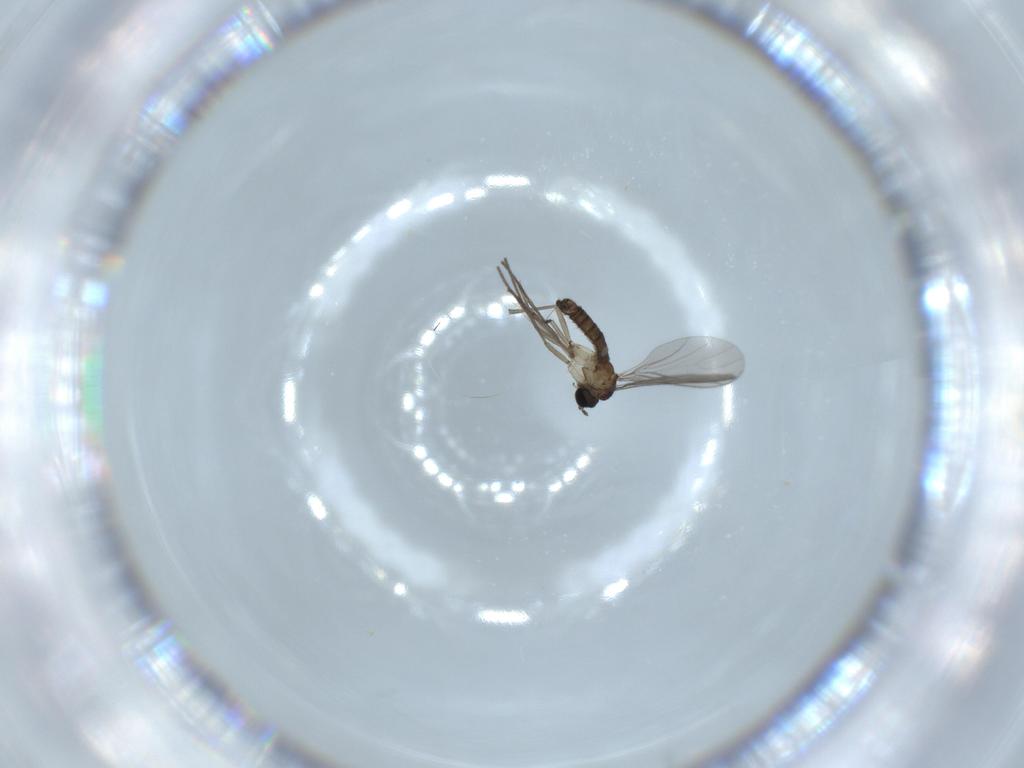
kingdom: Animalia
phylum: Arthropoda
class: Insecta
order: Diptera
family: Sciaridae
